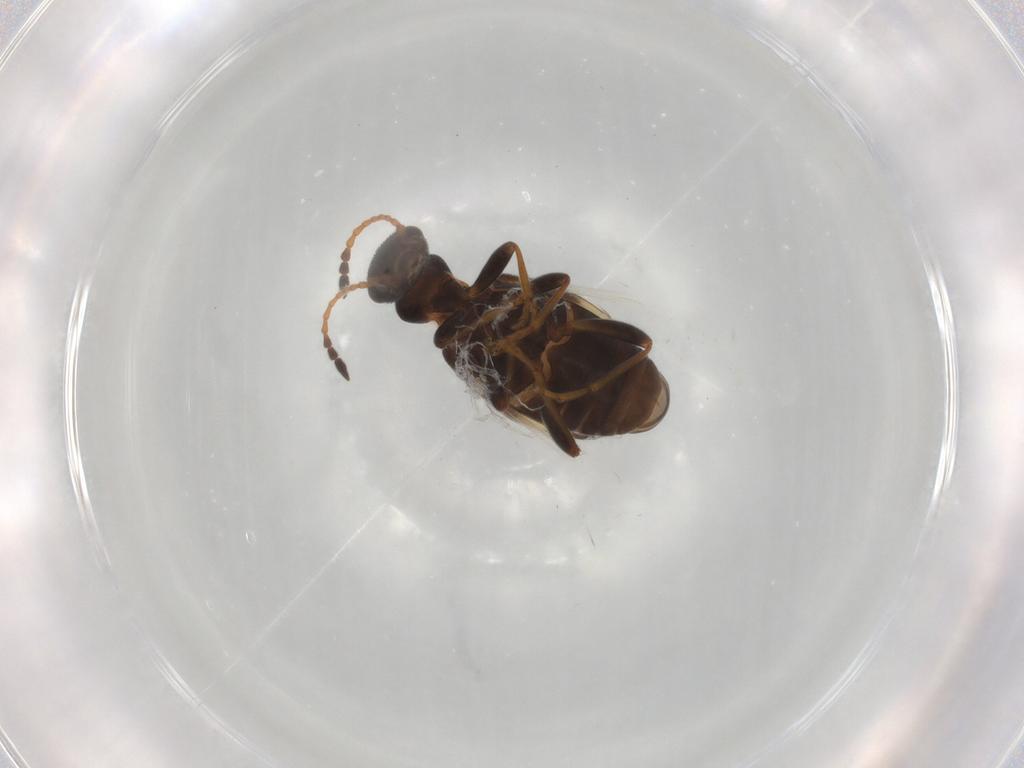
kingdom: Animalia
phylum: Arthropoda
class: Insecta
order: Coleoptera
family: Anthicidae
